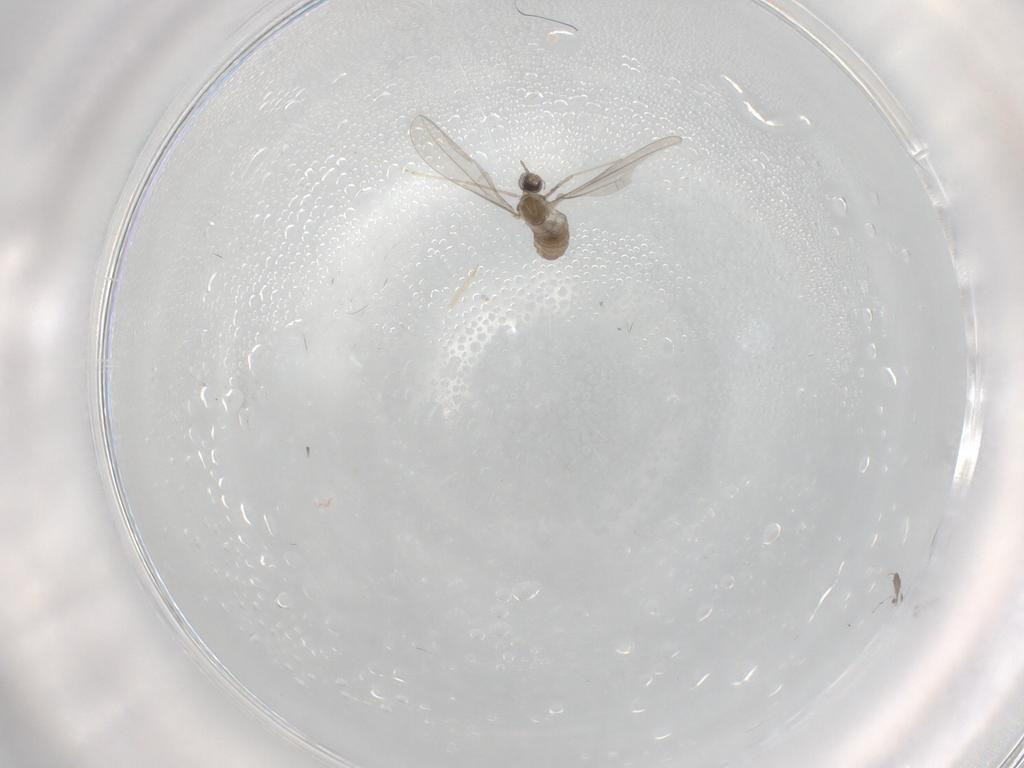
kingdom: Animalia
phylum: Arthropoda
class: Insecta
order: Diptera
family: Cecidomyiidae
